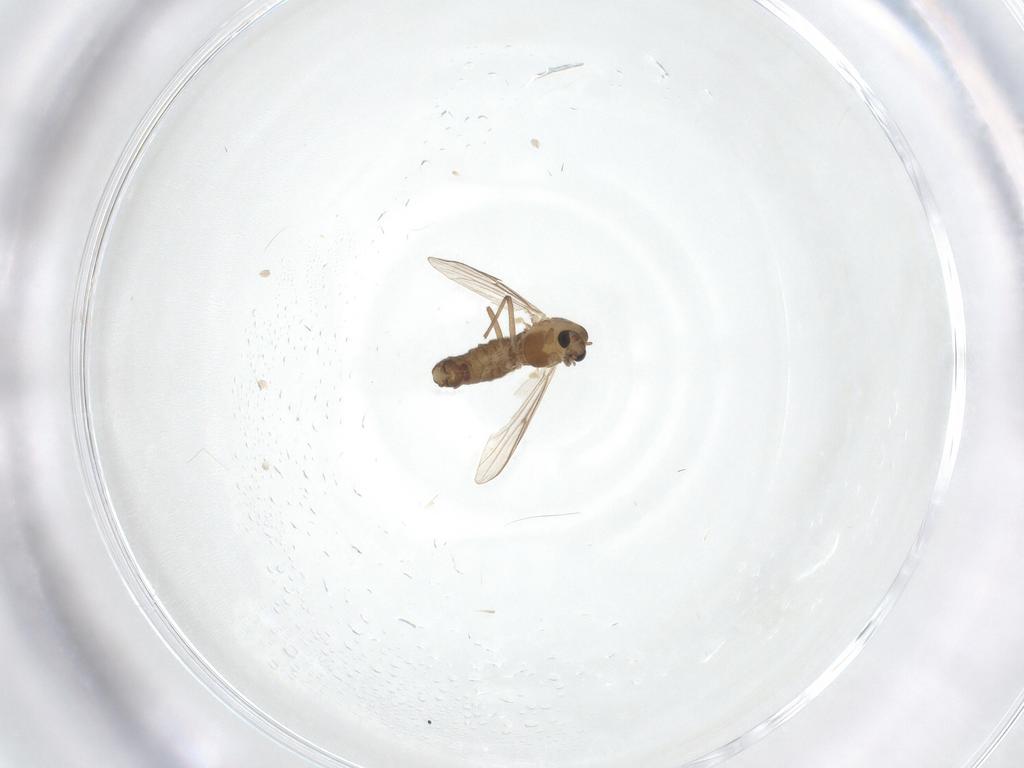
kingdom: Animalia
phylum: Arthropoda
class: Insecta
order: Diptera
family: Chironomidae
